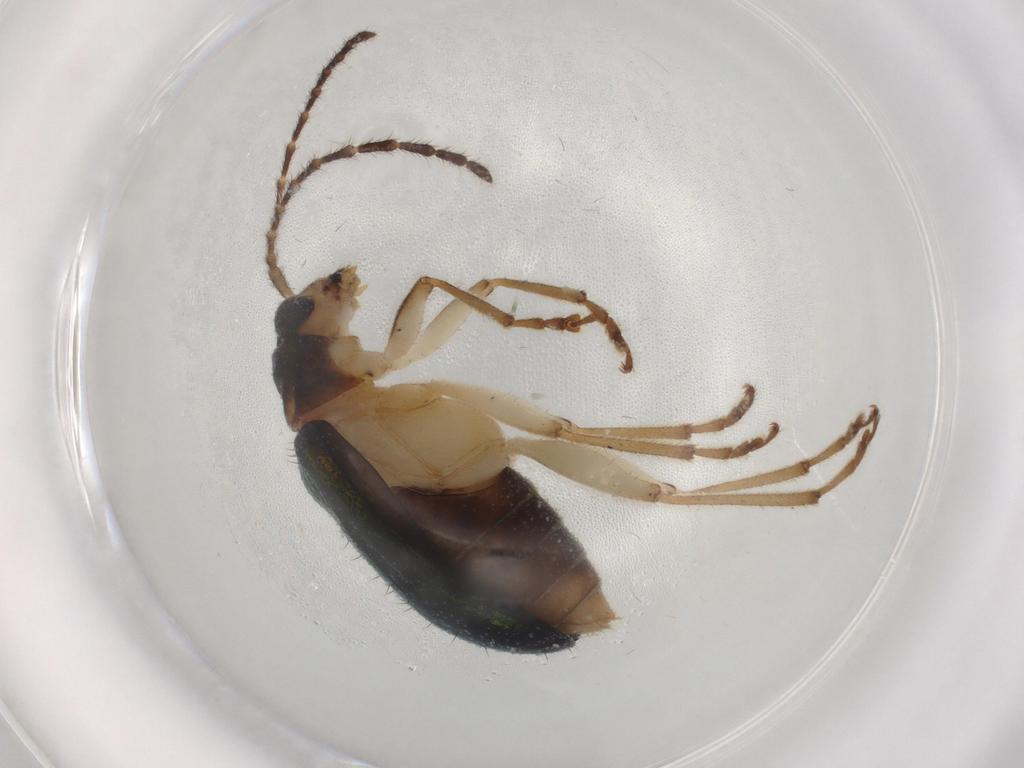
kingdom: Animalia
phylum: Arthropoda
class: Insecta
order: Coleoptera
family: Chrysomelidae
